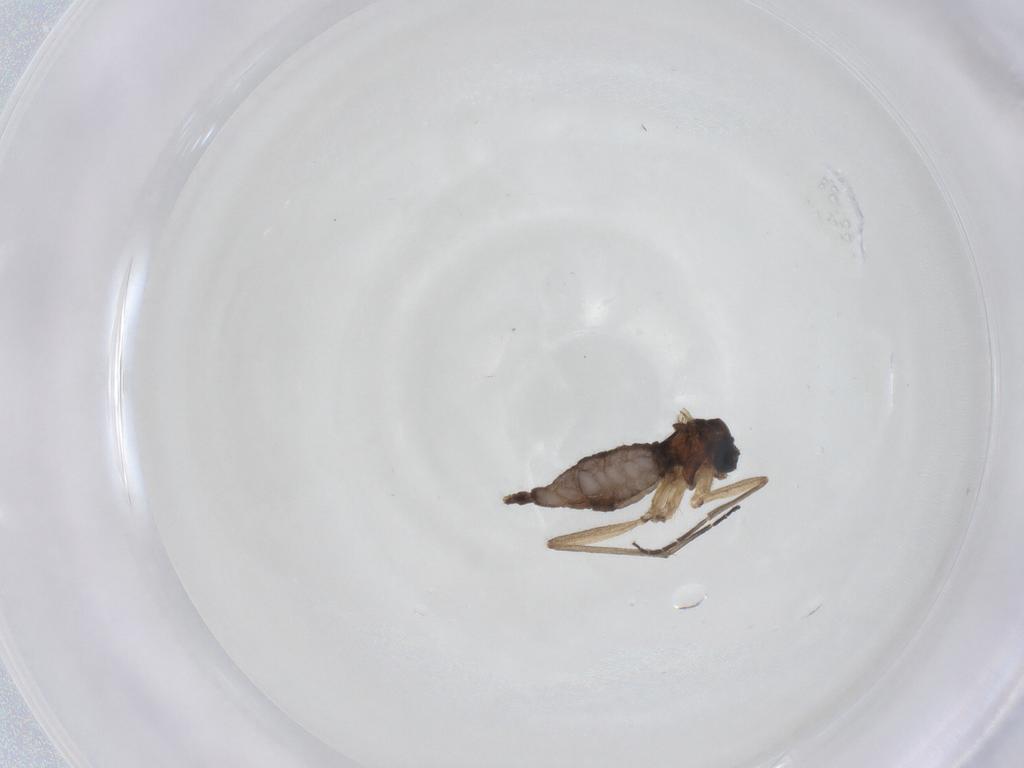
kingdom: Animalia
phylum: Arthropoda
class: Insecta
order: Diptera
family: Sciaridae
